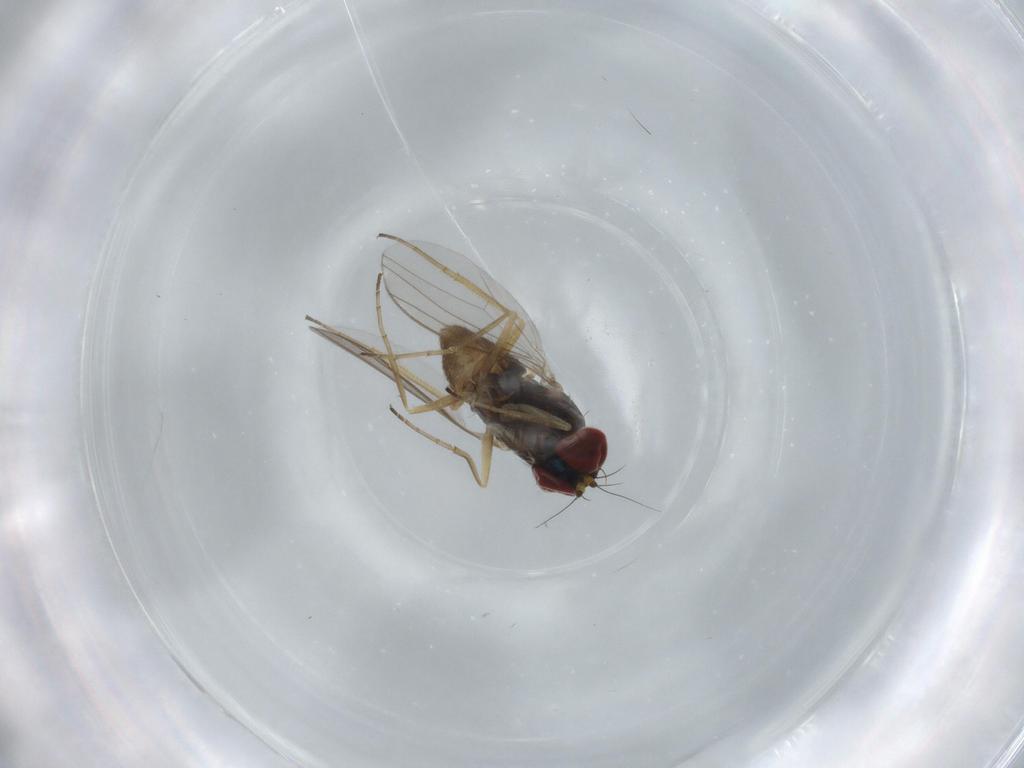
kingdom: Animalia
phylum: Arthropoda
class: Insecta
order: Diptera
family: Dolichopodidae
